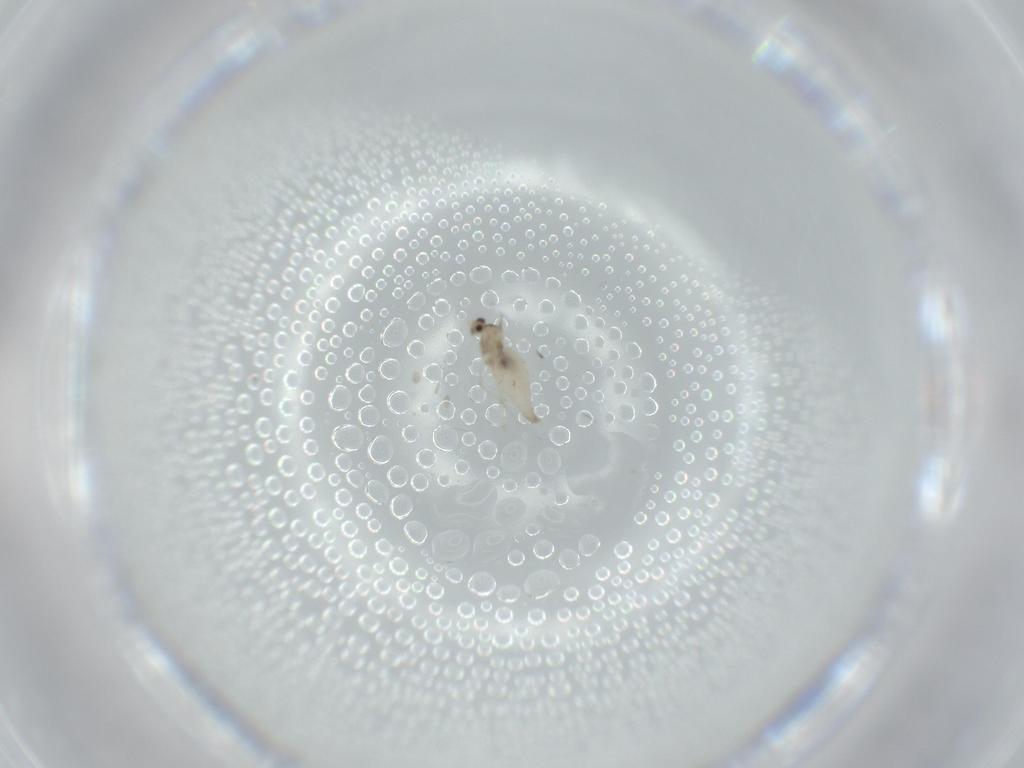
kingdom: Animalia
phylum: Arthropoda
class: Insecta
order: Diptera
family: Cecidomyiidae
